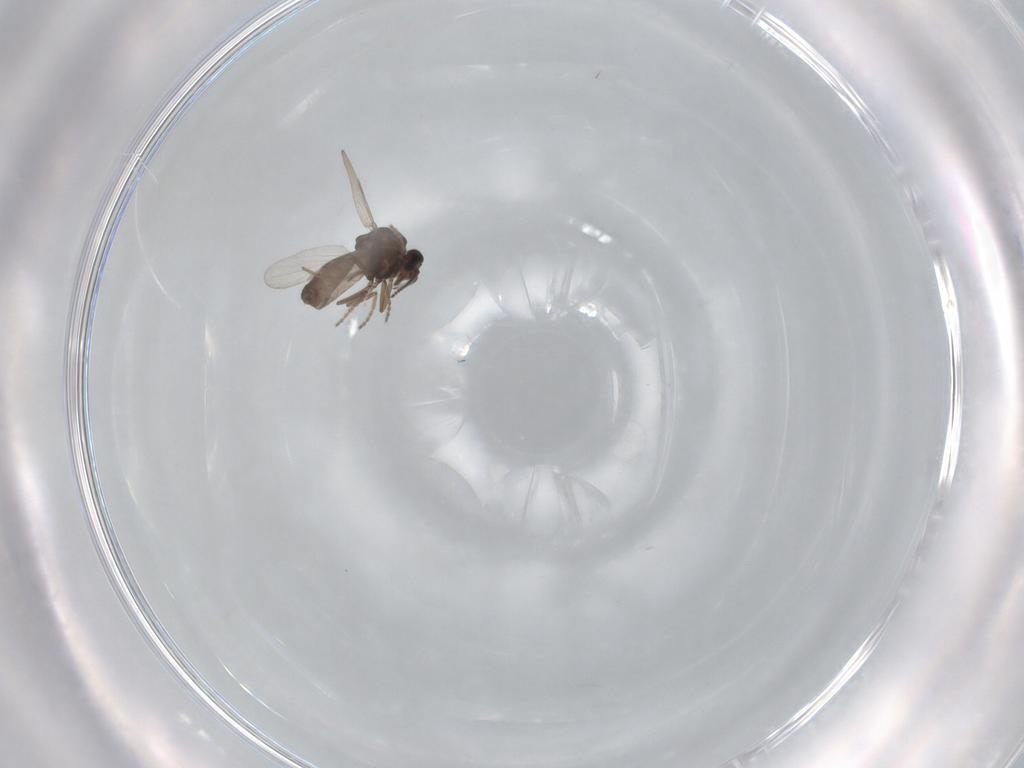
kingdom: Animalia
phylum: Arthropoda
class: Insecta
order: Diptera
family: Ceratopogonidae
